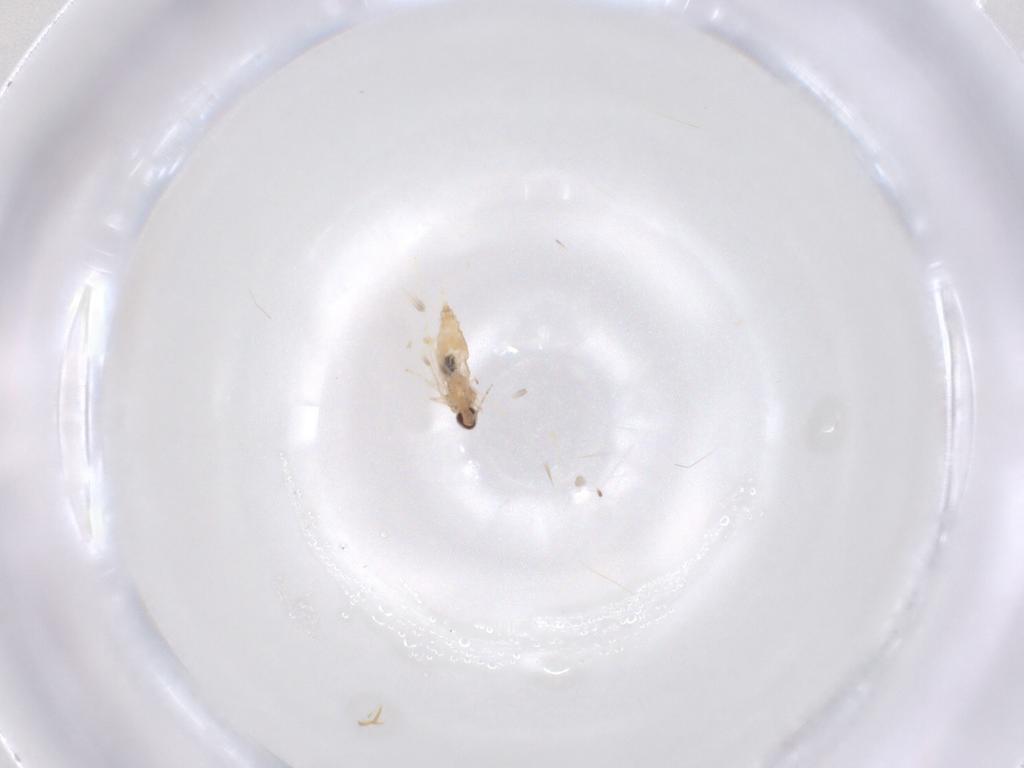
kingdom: Animalia
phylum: Arthropoda
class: Insecta
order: Diptera
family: Cecidomyiidae
